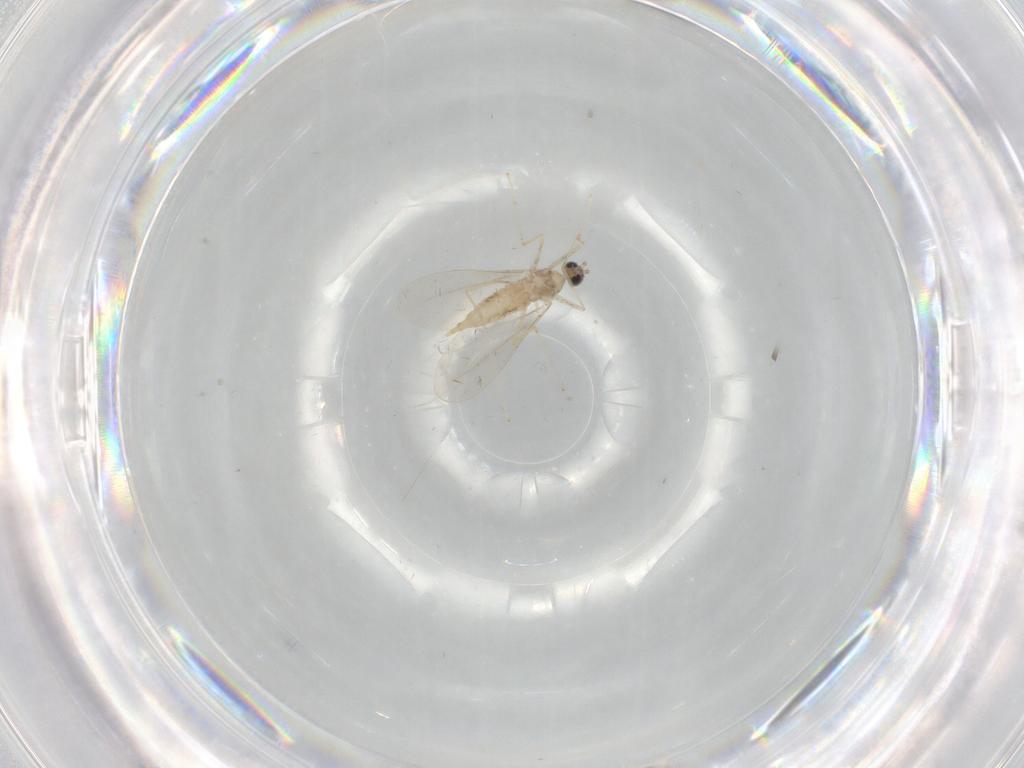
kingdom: Animalia
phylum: Arthropoda
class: Insecta
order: Diptera
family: Cecidomyiidae
